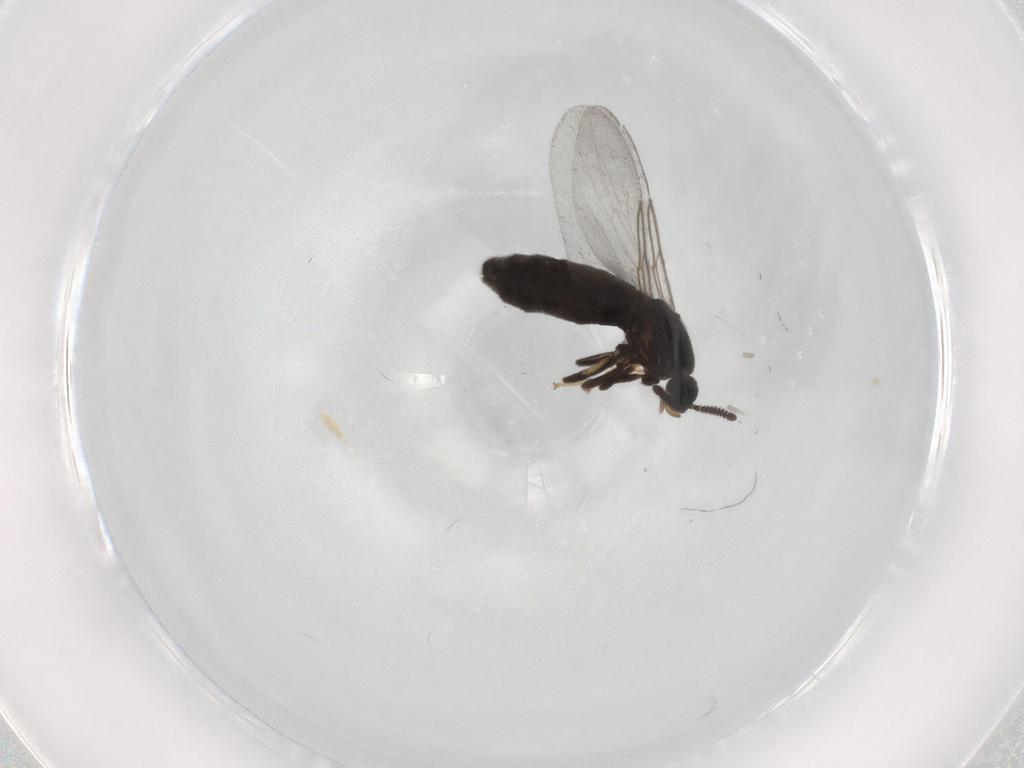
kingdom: Animalia
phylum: Arthropoda
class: Insecta
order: Diptera
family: Scatopsidae
